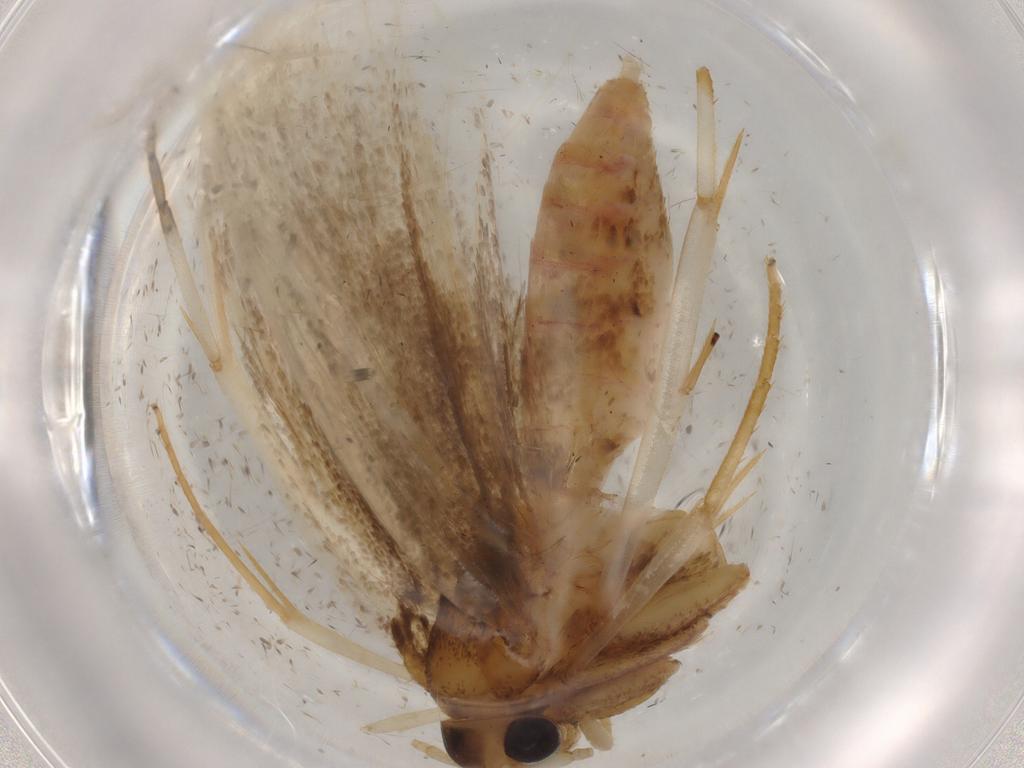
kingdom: Animalia
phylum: Arthropoda
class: Insecta
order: Lepidoptera
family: Lecithoceridae
